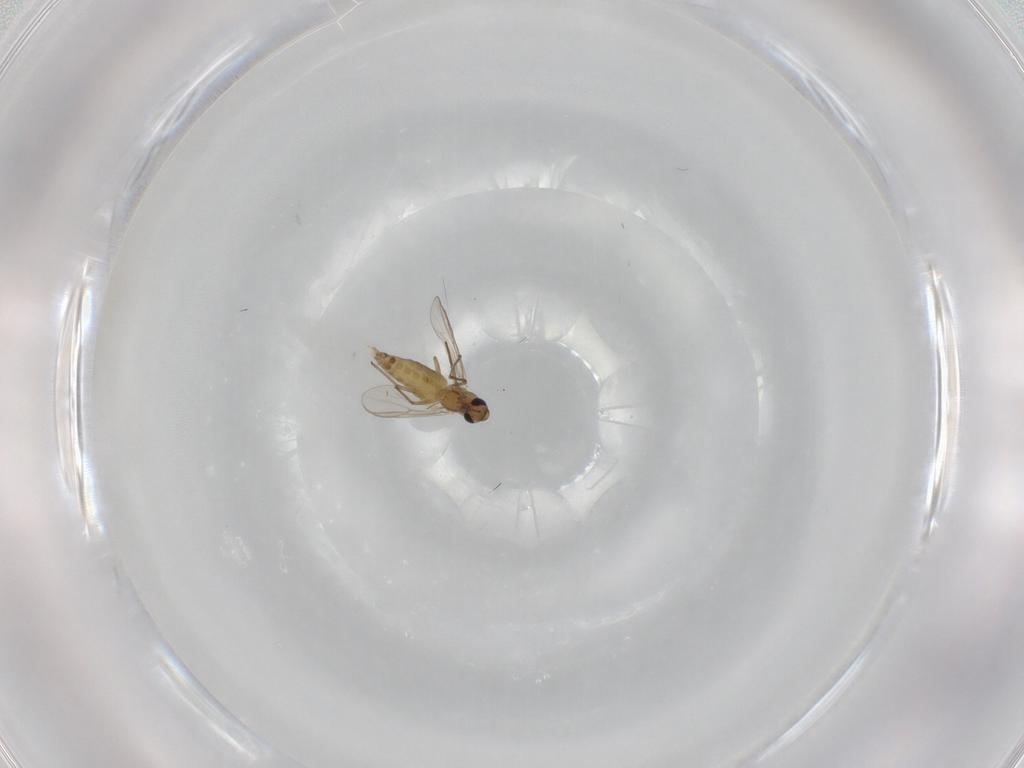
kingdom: Animalia
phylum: Arthropoda
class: Insecta
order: Diptera
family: Chironomidae
